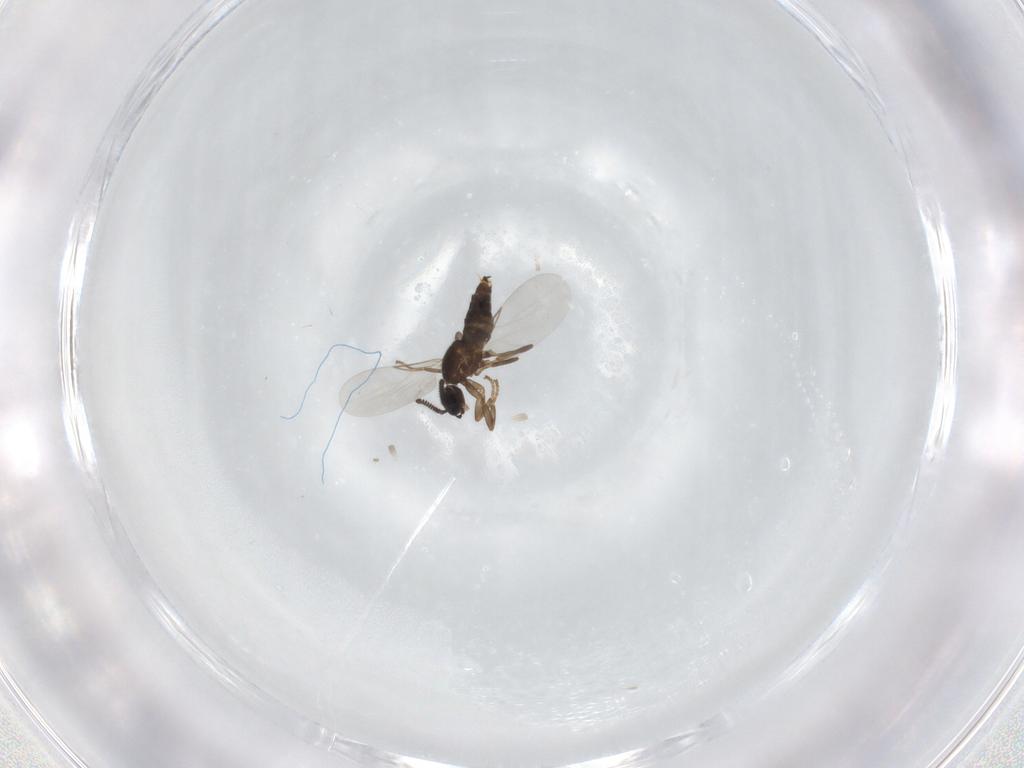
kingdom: Animalia
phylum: Arthropoda
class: Insecta
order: Diptera
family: Scatopsidae
